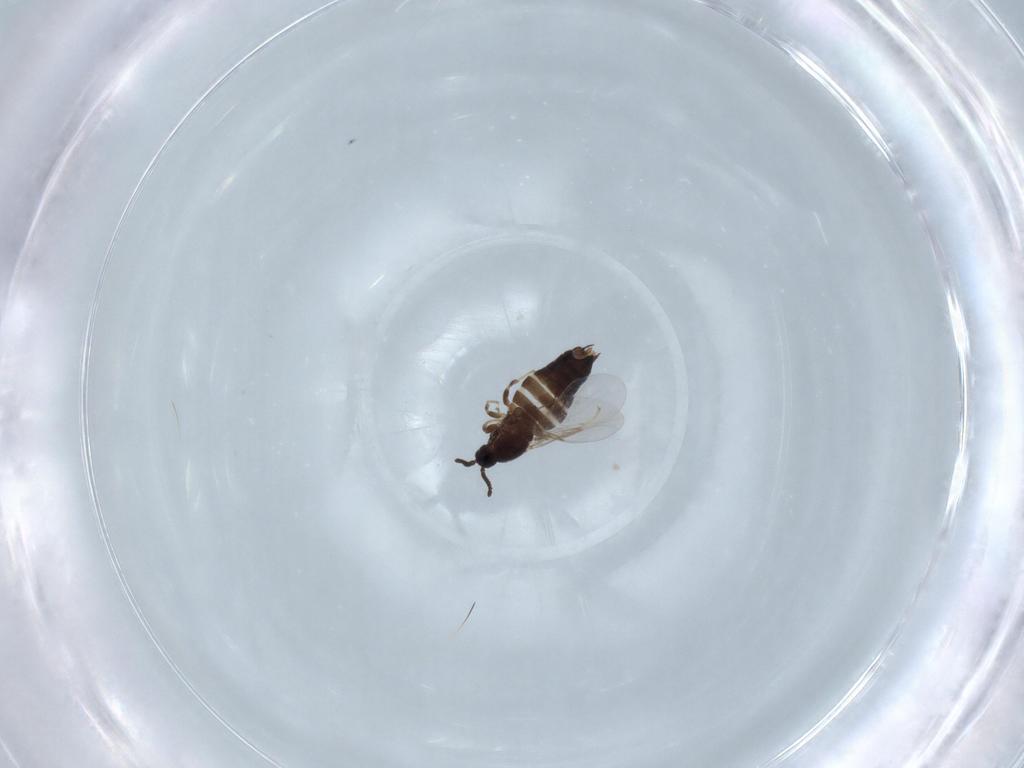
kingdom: Animalia
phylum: Arthropoda
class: Insecta
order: Diptera
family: Scatopsidae
